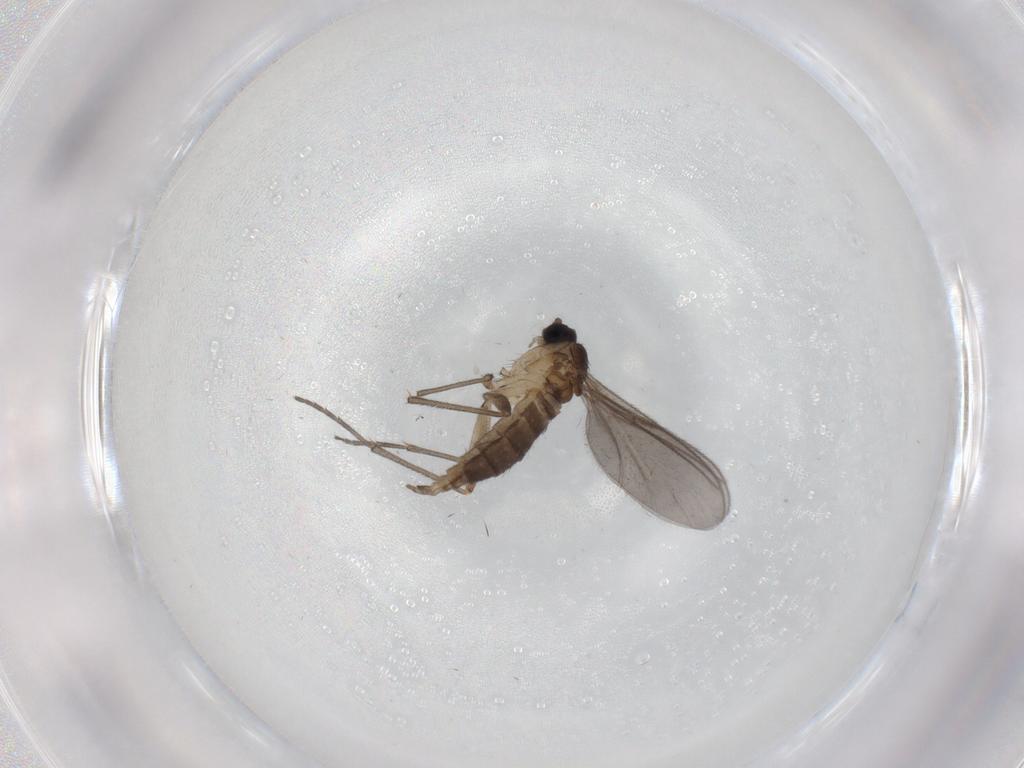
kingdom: Animalia
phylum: Arthropoda
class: Insecta
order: Diptera
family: Sciaridae
